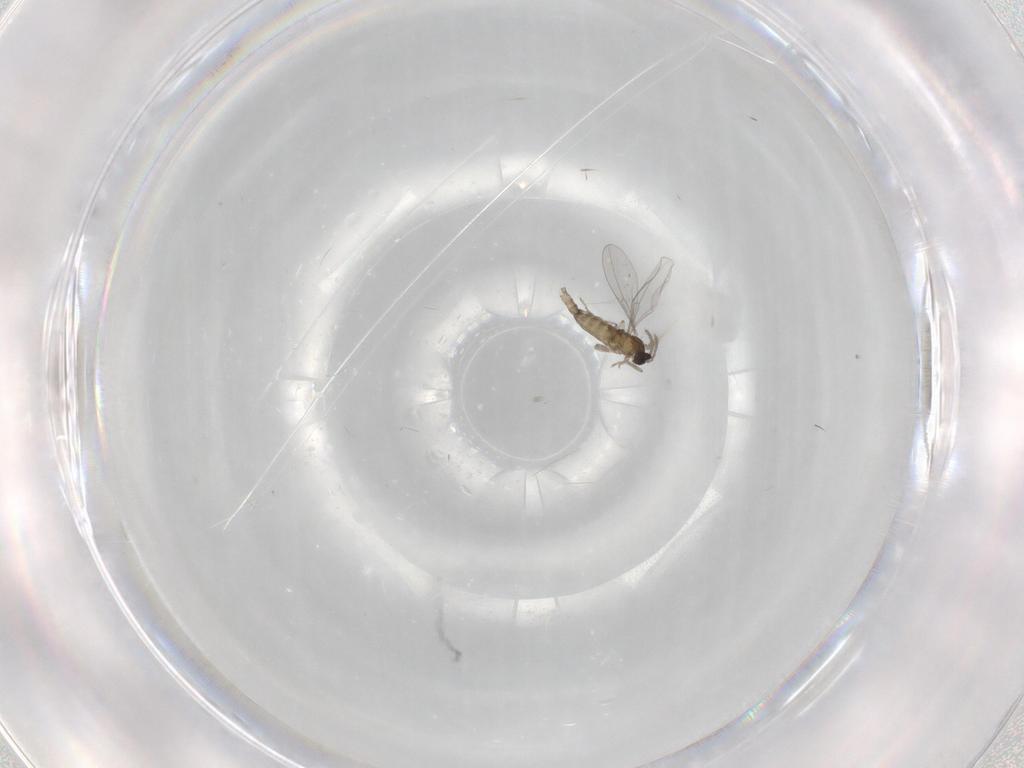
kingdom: Animalia
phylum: Arthropoda
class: Insecta
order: Diptera
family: Cecidomyiidae
